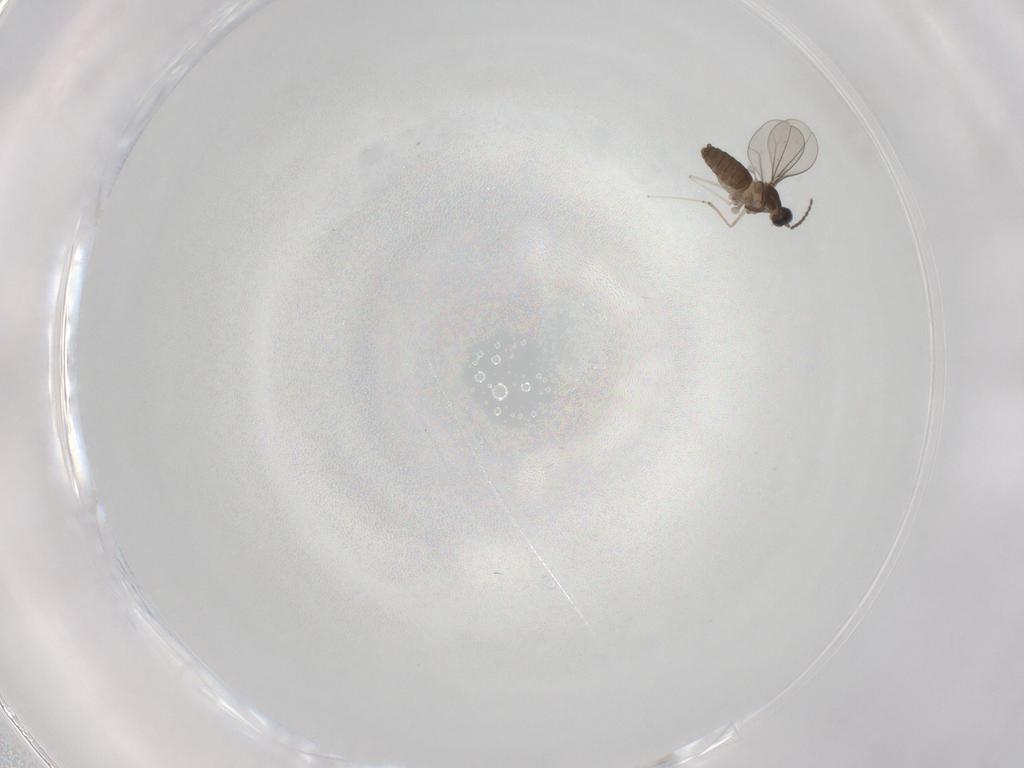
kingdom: Animalia
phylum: Arthropoda
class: Insecta
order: Diptera
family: Cecidomyiidae
